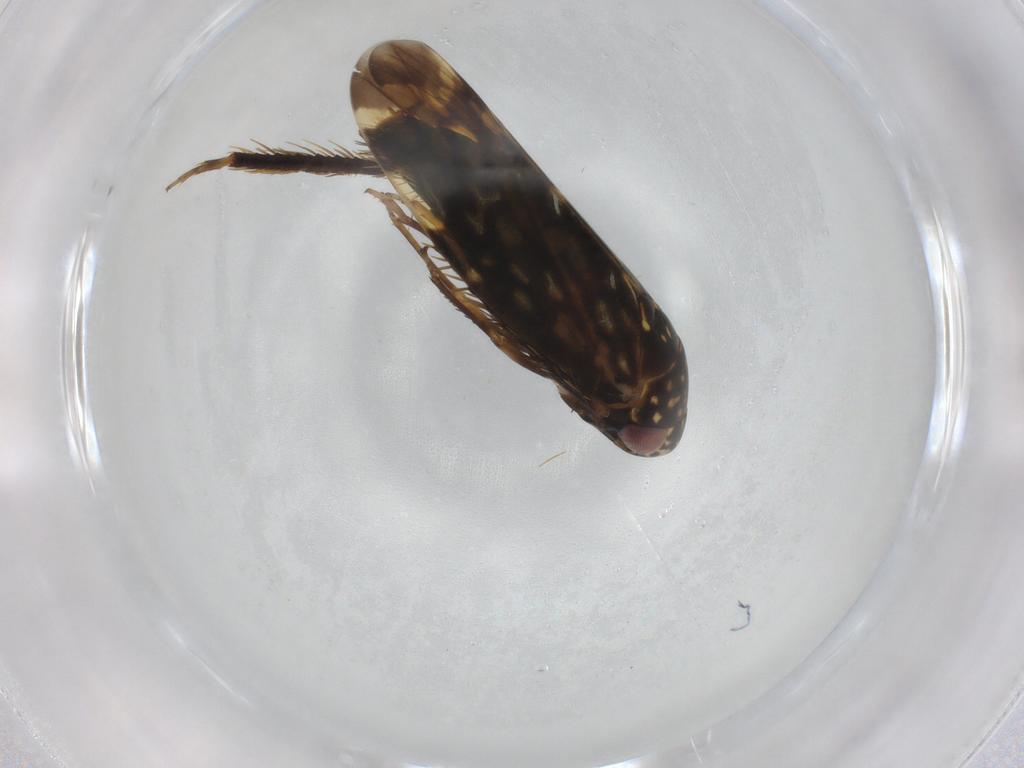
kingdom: Animalia
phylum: Arthropoda
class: Insecta
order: Hemiptera
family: Cicadellidae
